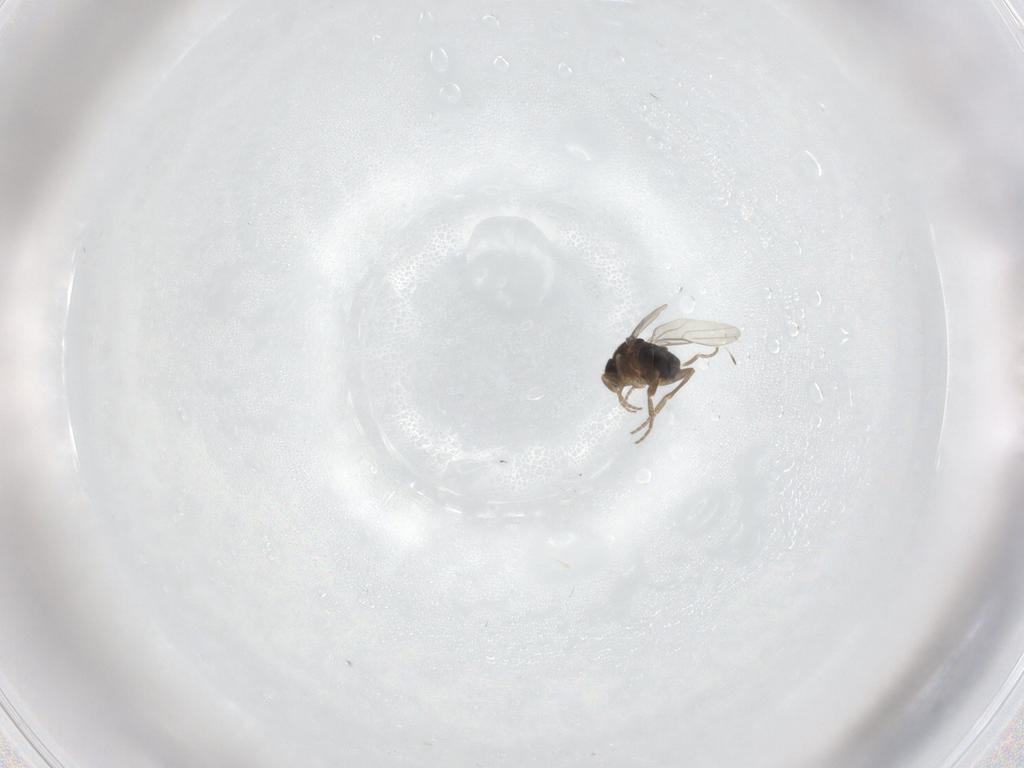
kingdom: Animalia
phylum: Arthropoda
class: Insecta
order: Diptera
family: Phoridae
